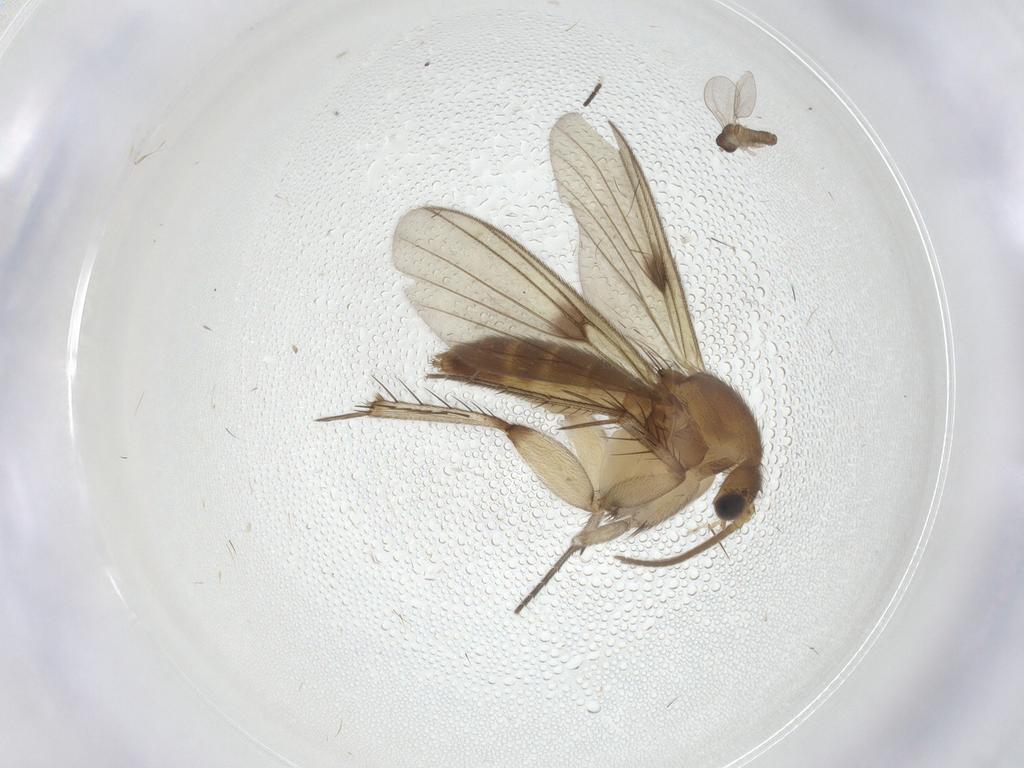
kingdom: Animalia
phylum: Arthropoda
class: Insecta
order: Diptera
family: Mycetophilidae
